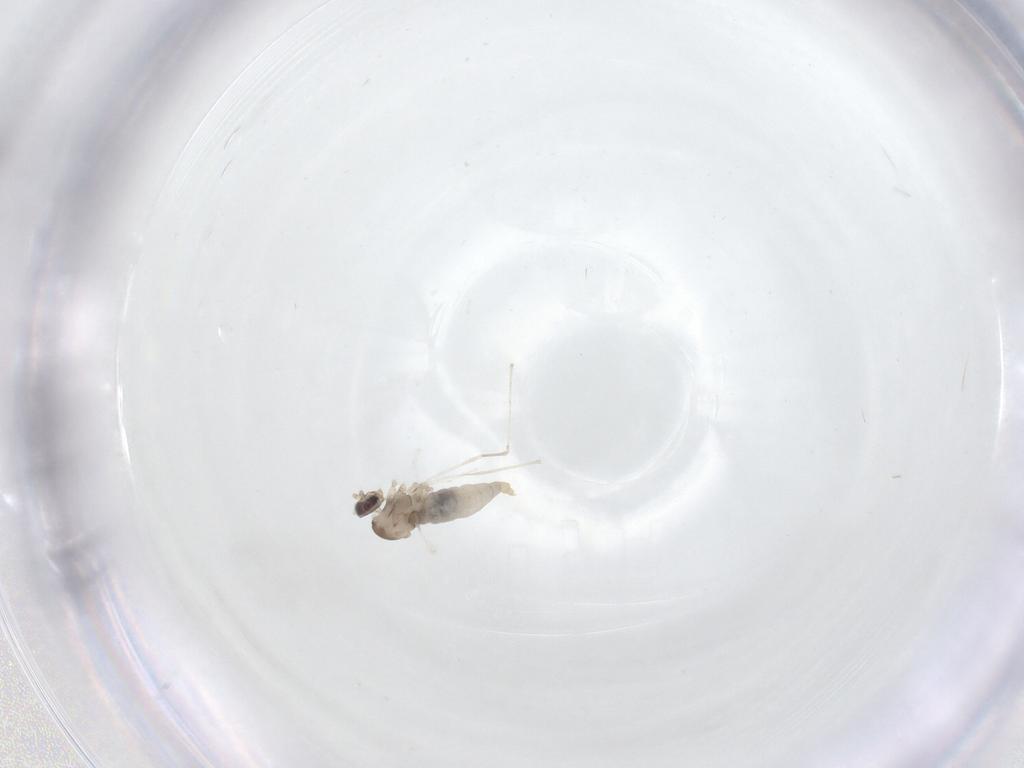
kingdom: Animalia
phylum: Arthropoda
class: Insecta
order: Diptera
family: Cecidomyiidae
